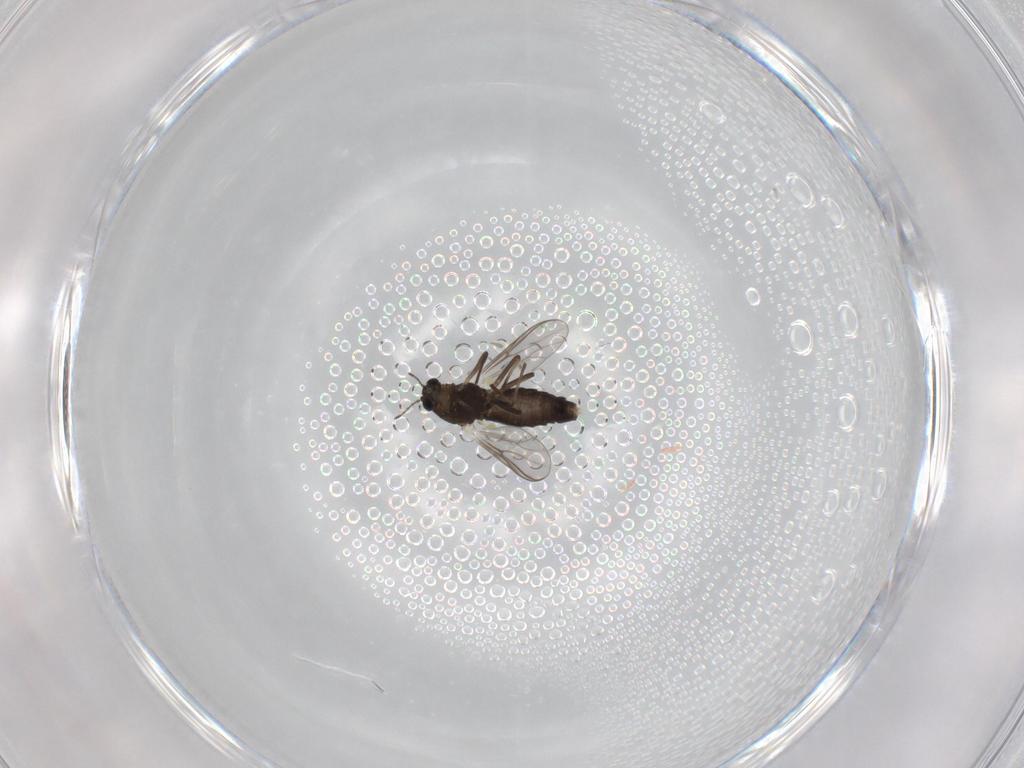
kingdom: Animalia
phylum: Arthropoda
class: Insecta
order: Diptera
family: Chironomidae
